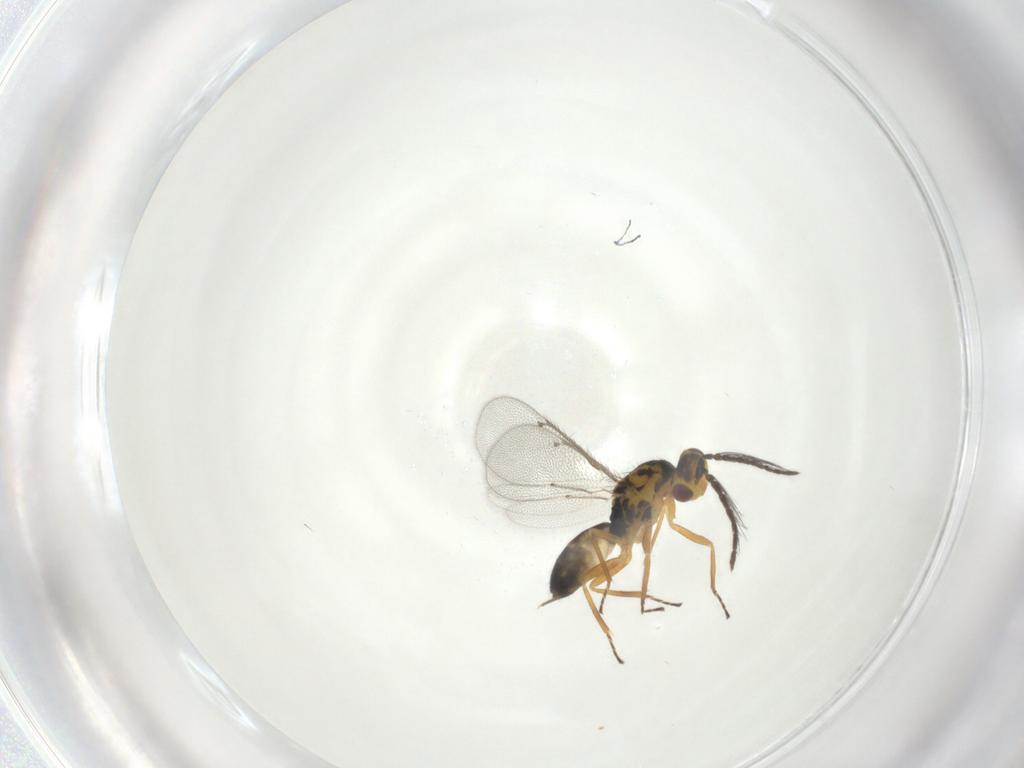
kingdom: Animalia
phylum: Arthropoda
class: Insecta
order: Hymenoptera
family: Eulophidae
